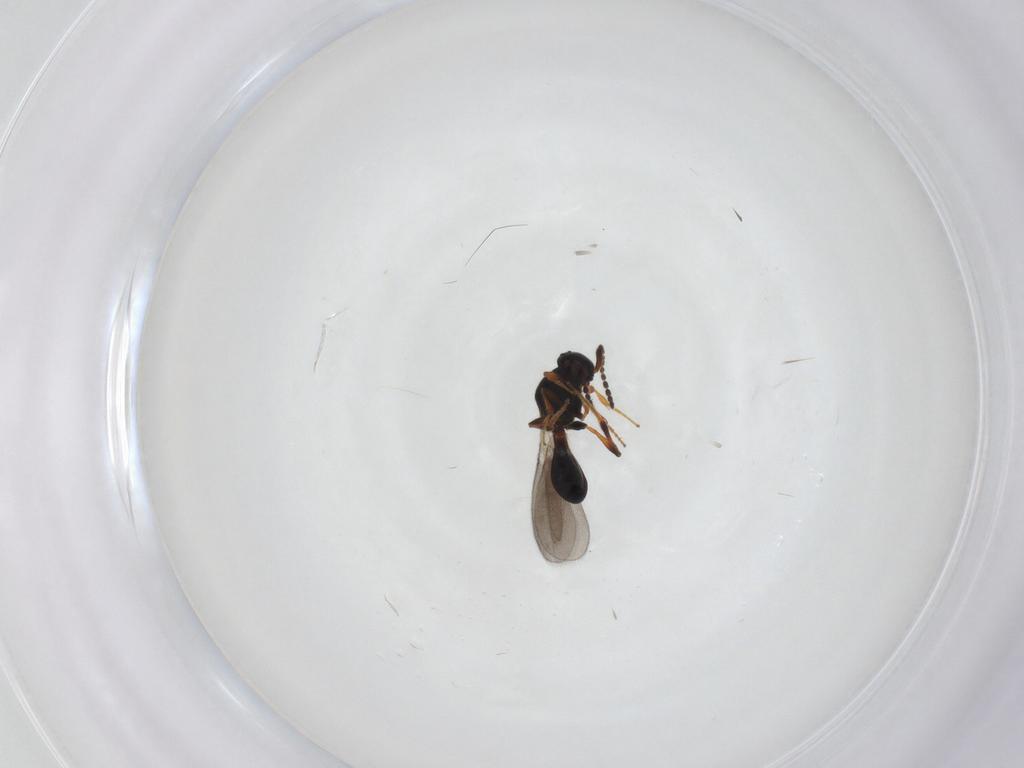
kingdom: Animalia
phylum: Arthropoda
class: Insecta
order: Hymenoptera
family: Platygastridae
